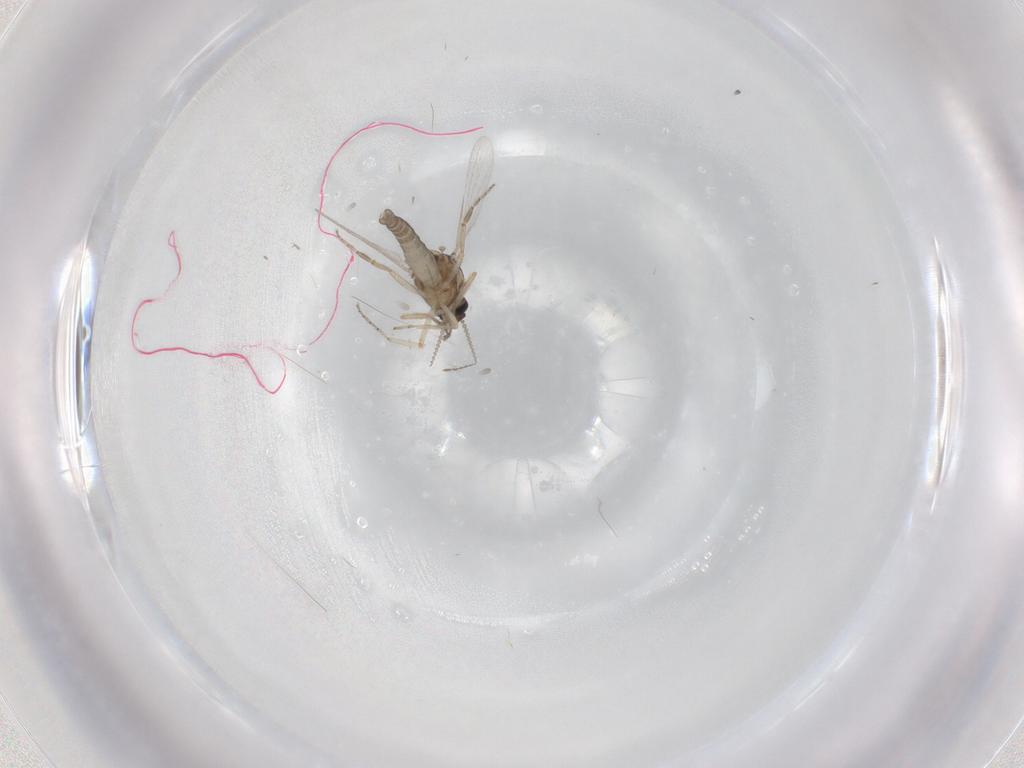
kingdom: Animalia
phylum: Arthropoda
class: Insecta
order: Diptera
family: Ceratopogonidae
